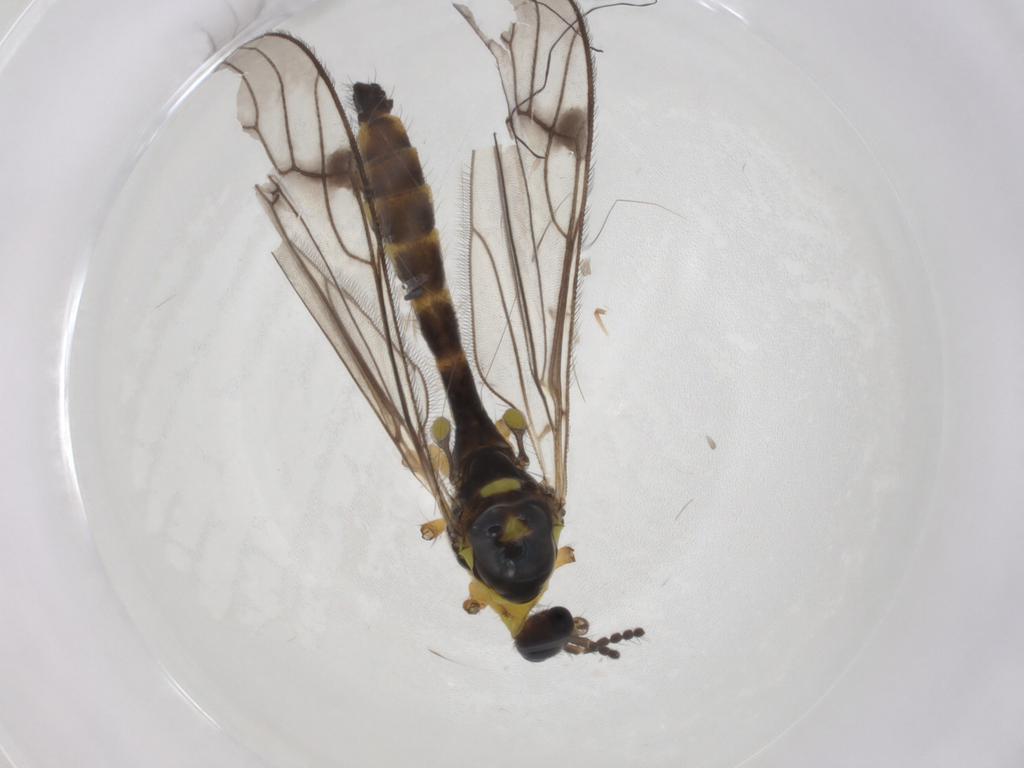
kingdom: Animalia
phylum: Arthropoda
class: Insecta
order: Diptera
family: Limoniidae
